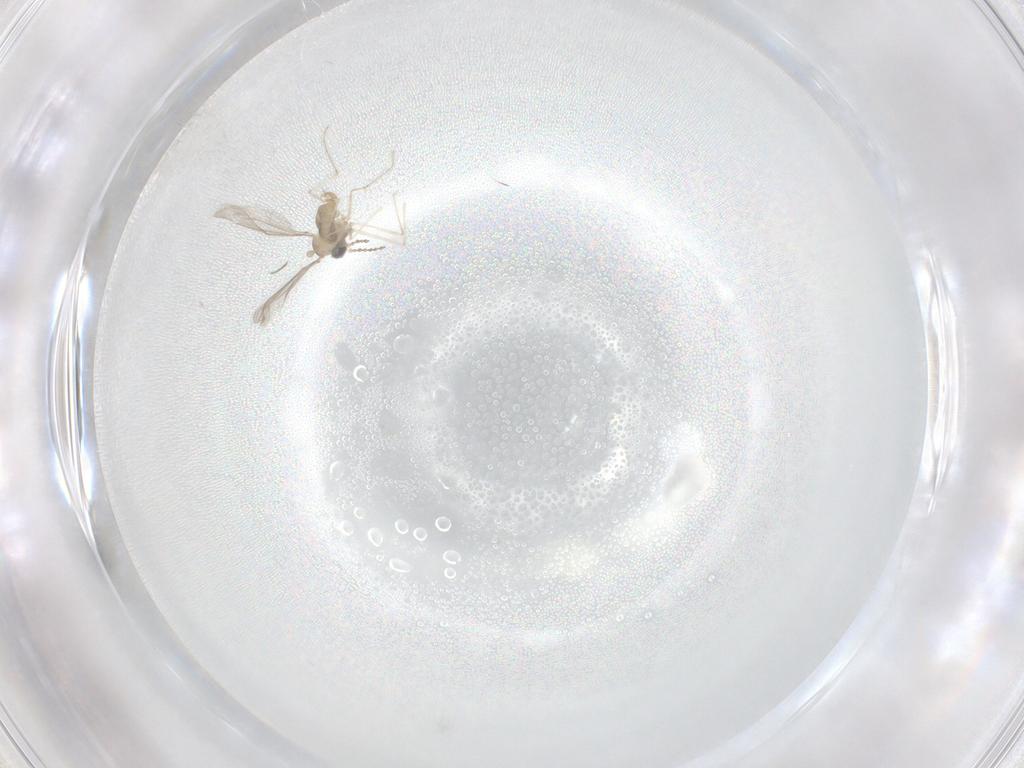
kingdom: Animalia
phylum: Arthropoda
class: Insecta
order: Diptera
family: Cecidomyiidae
